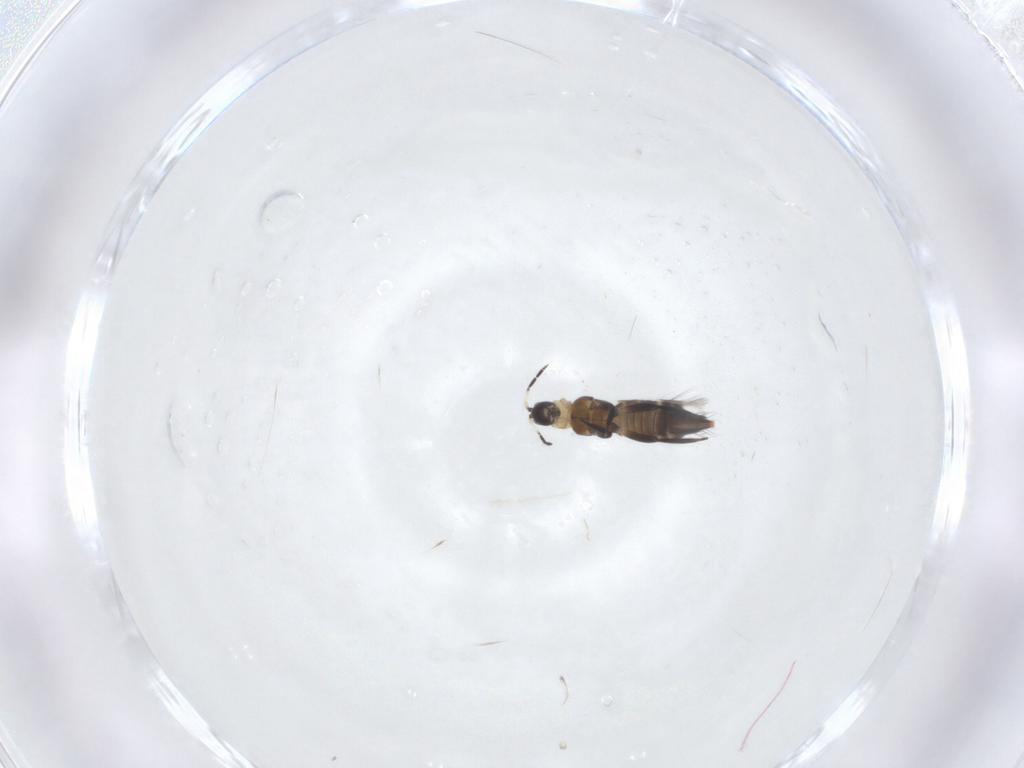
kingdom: Animalia
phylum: Arthropoda
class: Insecta
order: Thysanoptera
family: Aeolothripidae
